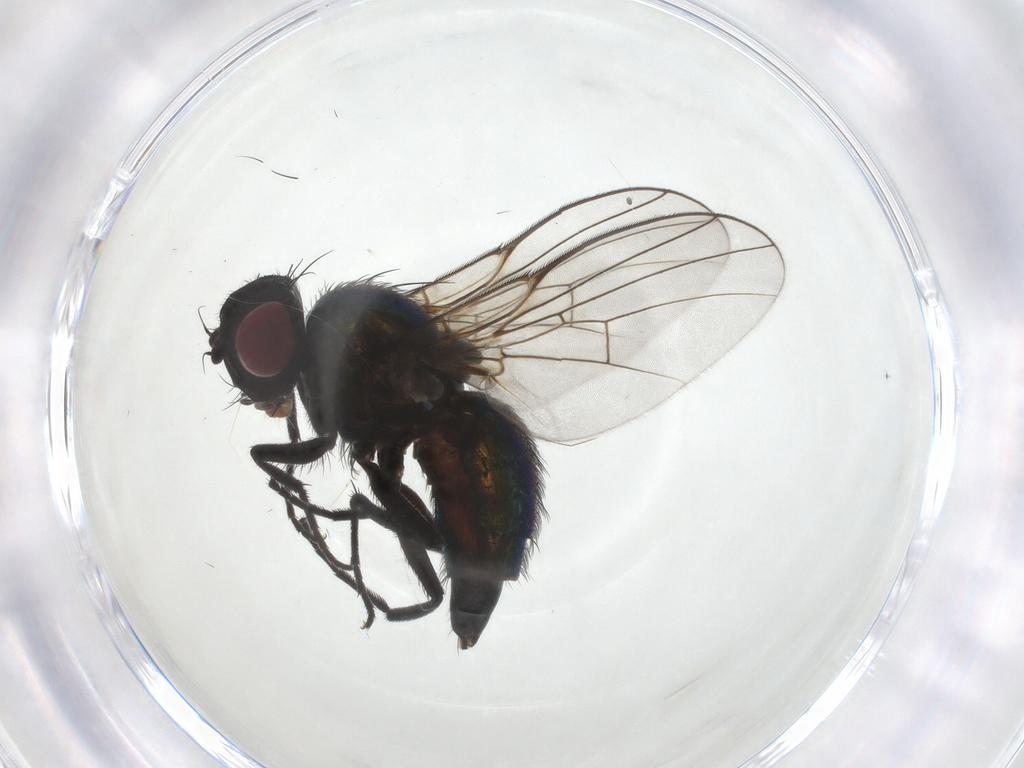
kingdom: Animalia
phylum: Arthropoda
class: Insecta
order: Diptera
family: Agromyzidae
